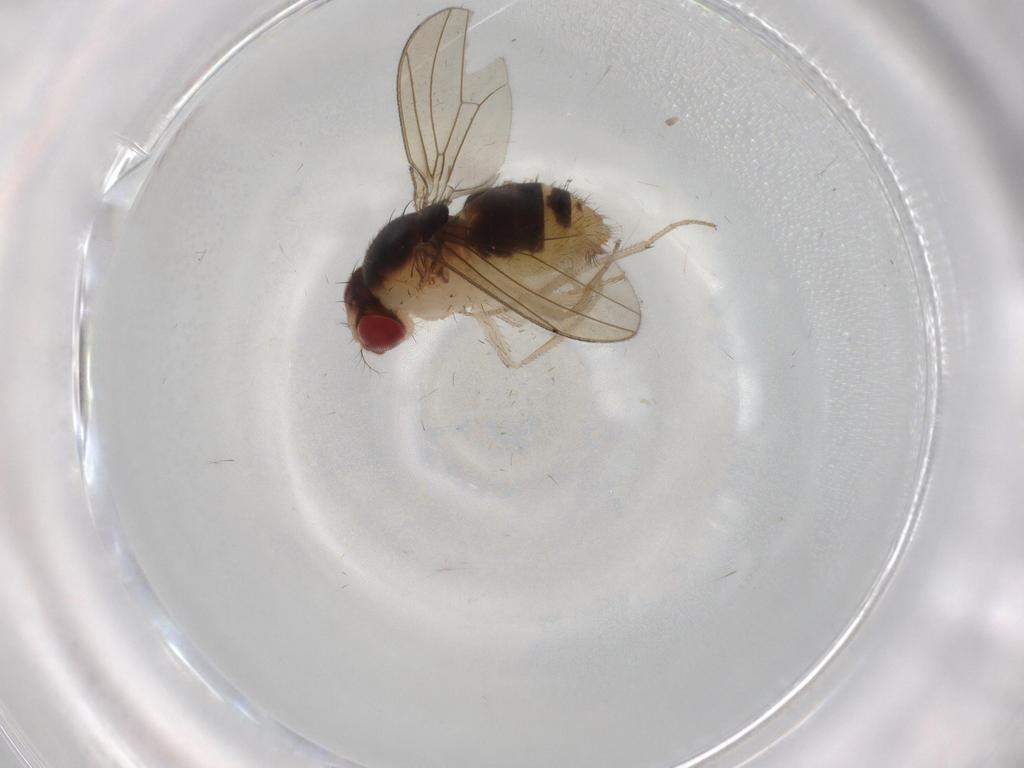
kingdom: Animalia
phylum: Arthropoda
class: Insecta
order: Diptera
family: Drosophilidae
